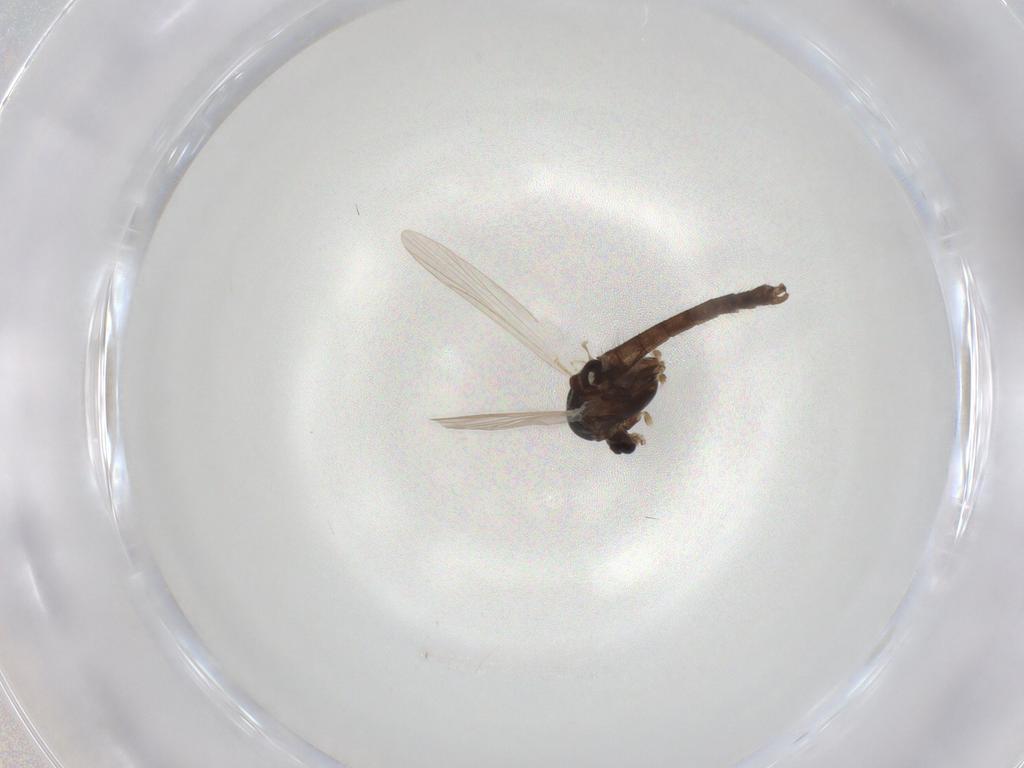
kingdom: Animalia
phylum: Arthropoda
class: Insecta
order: Diptera
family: Chironomidae
